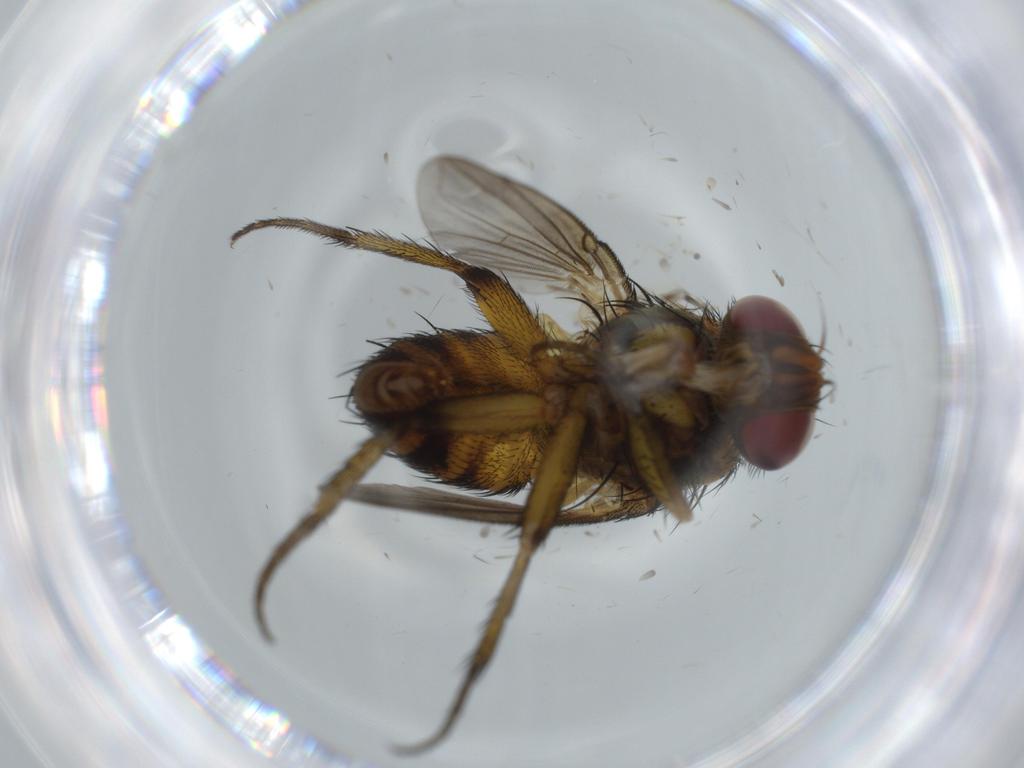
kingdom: Animalia
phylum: Arthropoda
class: Insecta
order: Diptera
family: Milichiidae
